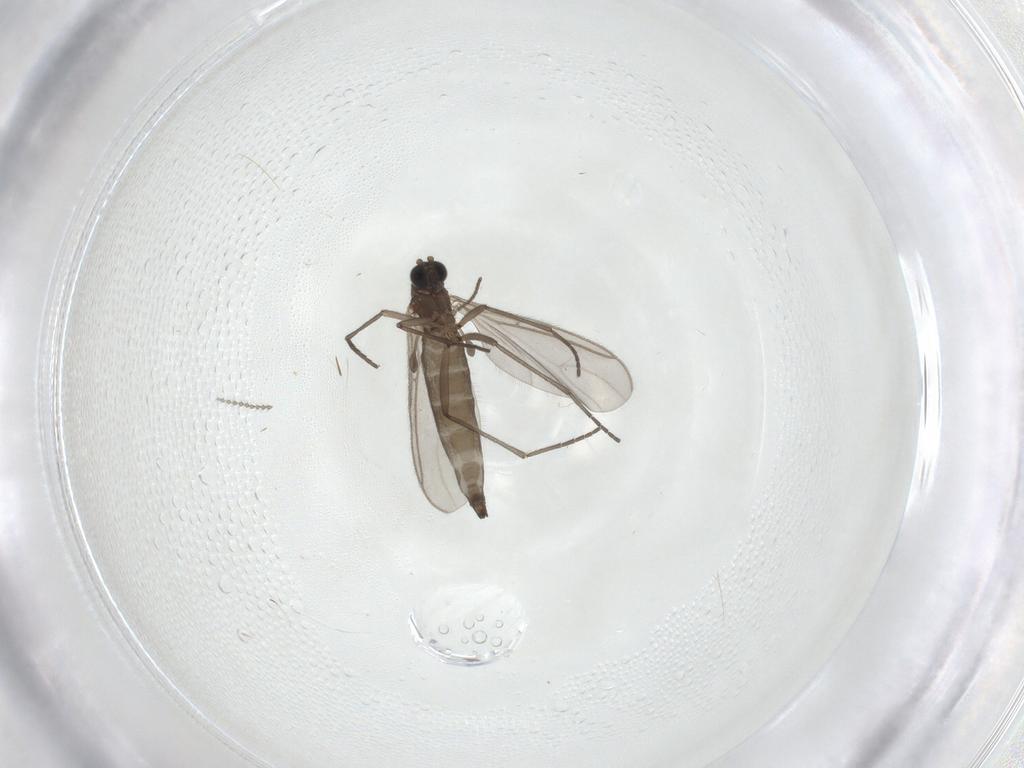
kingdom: Animalia
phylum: Arthropoda
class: Insecta
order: Diptera
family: Cecidomyiidae
